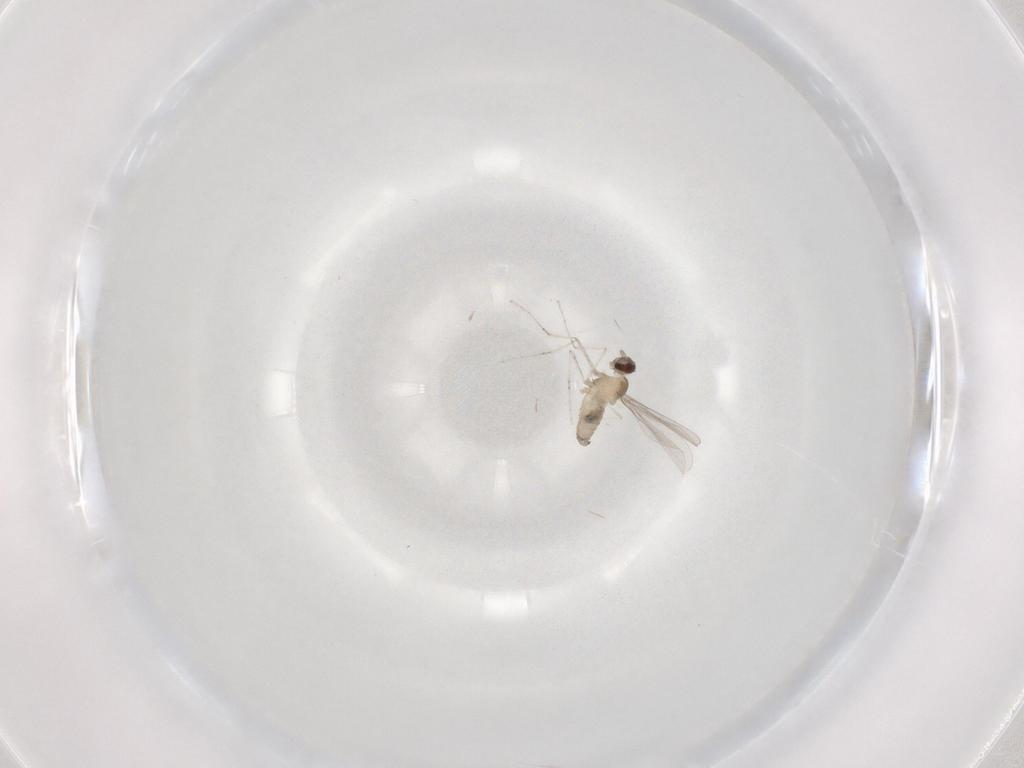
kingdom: Animalia
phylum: Arthropoda
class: Insecta
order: Diptera
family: Cecidomyiidae
